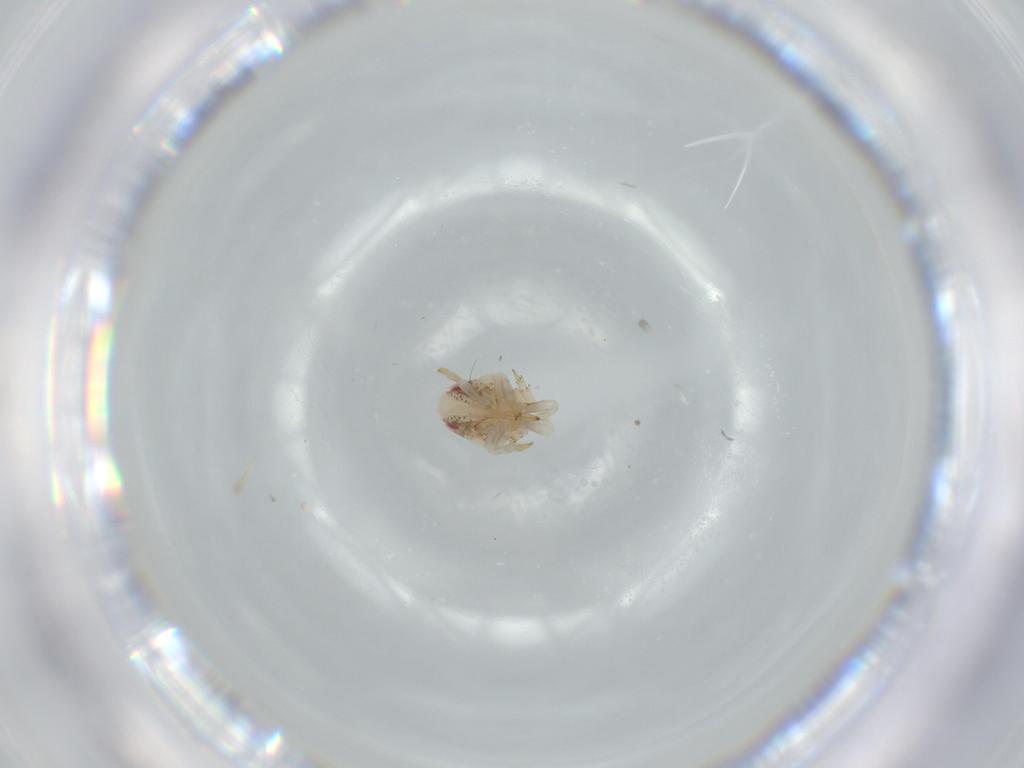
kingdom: Animalia
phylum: Arthropoda
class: Insecta
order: Hemiptera
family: Acanaloniidae
